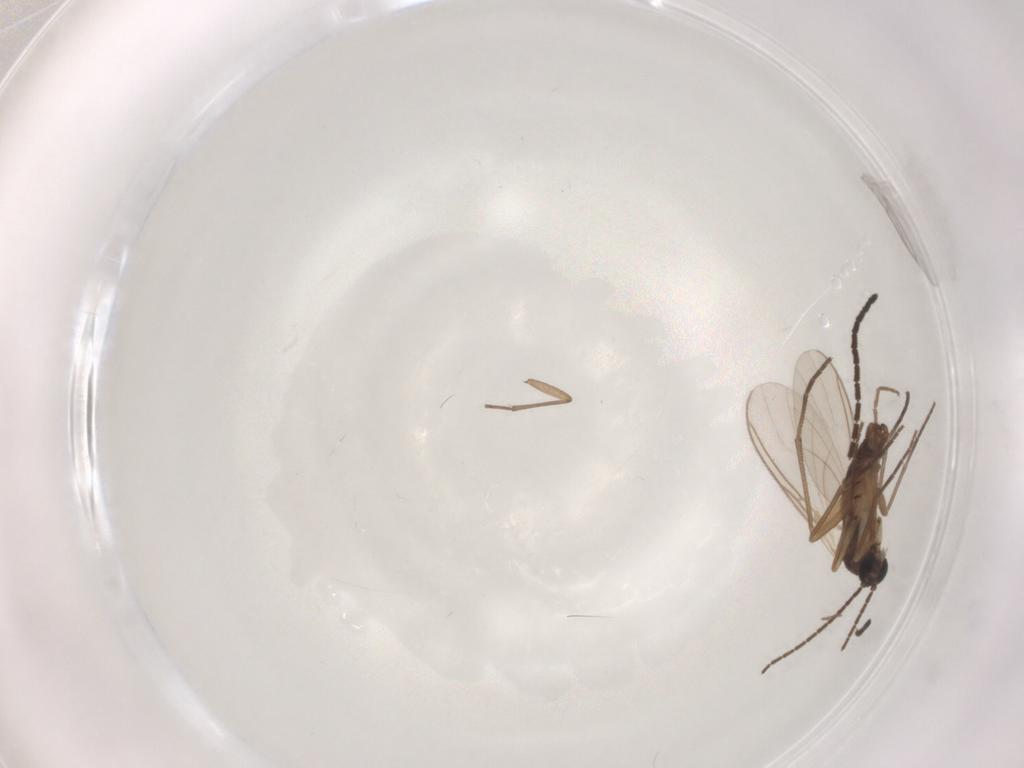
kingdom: Animalia
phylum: Arthropoda
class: Insecta
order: Diptera
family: Sciaridae
